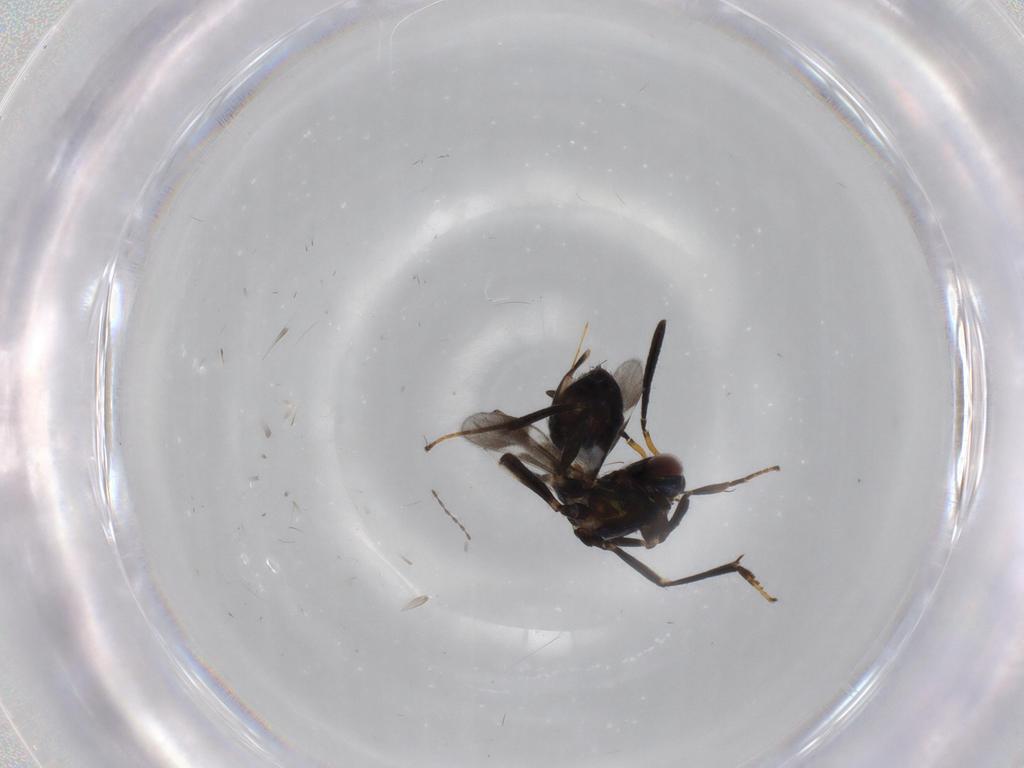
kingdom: Animalia
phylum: Arthropoda
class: Insecta
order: Hymenoptera
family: Eupelmidae
